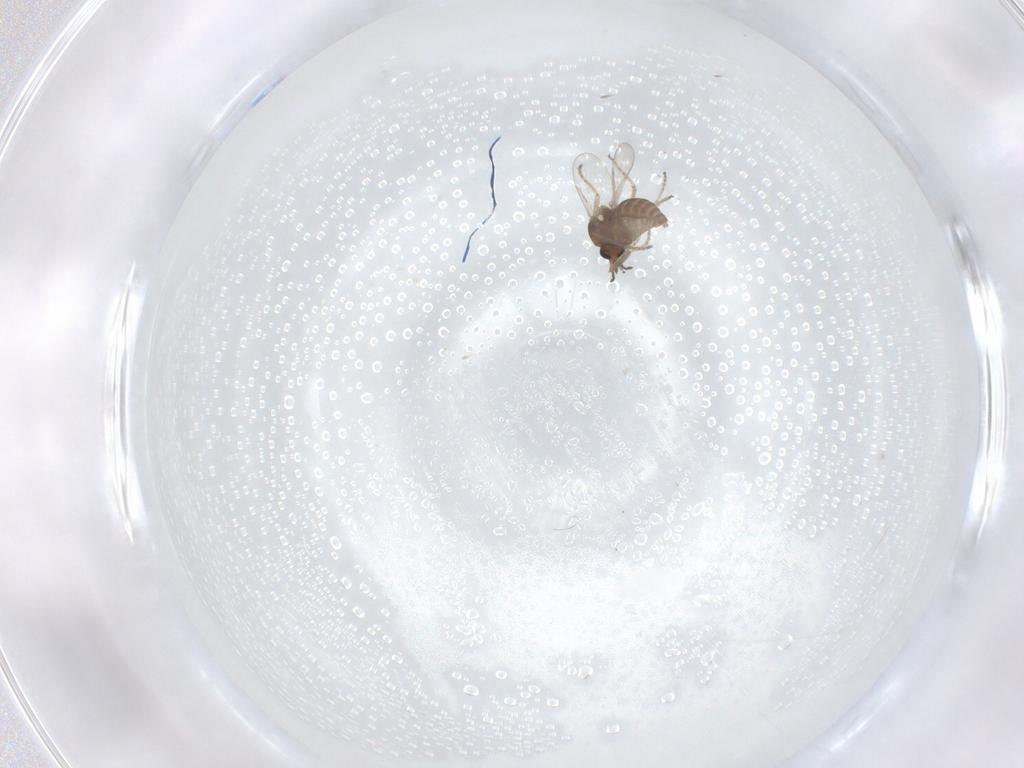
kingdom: Animalia
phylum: Arthropoda
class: Insecta
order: Diptera
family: Ceratopogonidae
